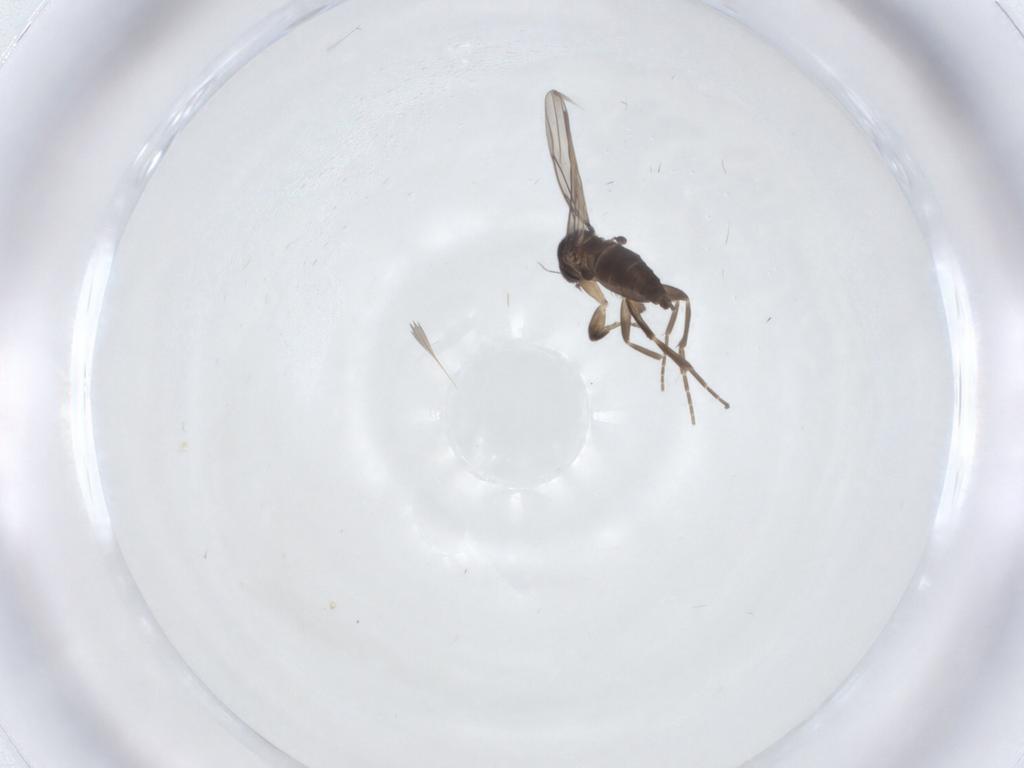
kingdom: Animalia
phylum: Arthropoda
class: Insecta
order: Diptera
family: Phoridae
